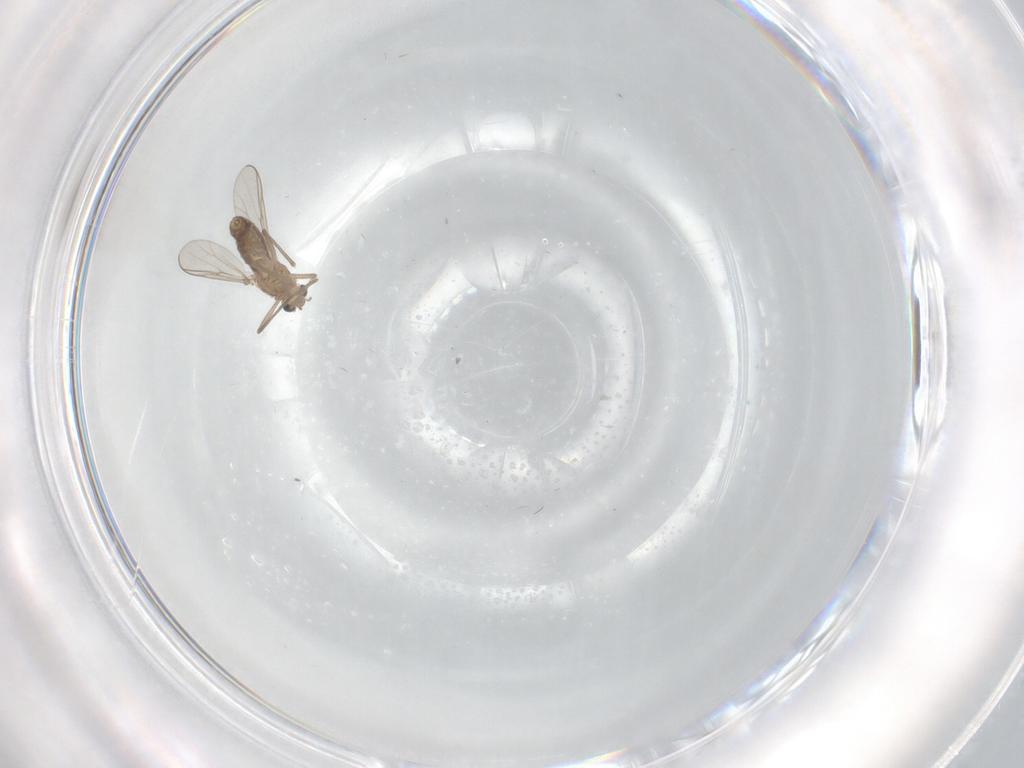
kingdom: Animalia
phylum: Arthropoda
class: Insecta
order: Diptera
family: Chironomidae
